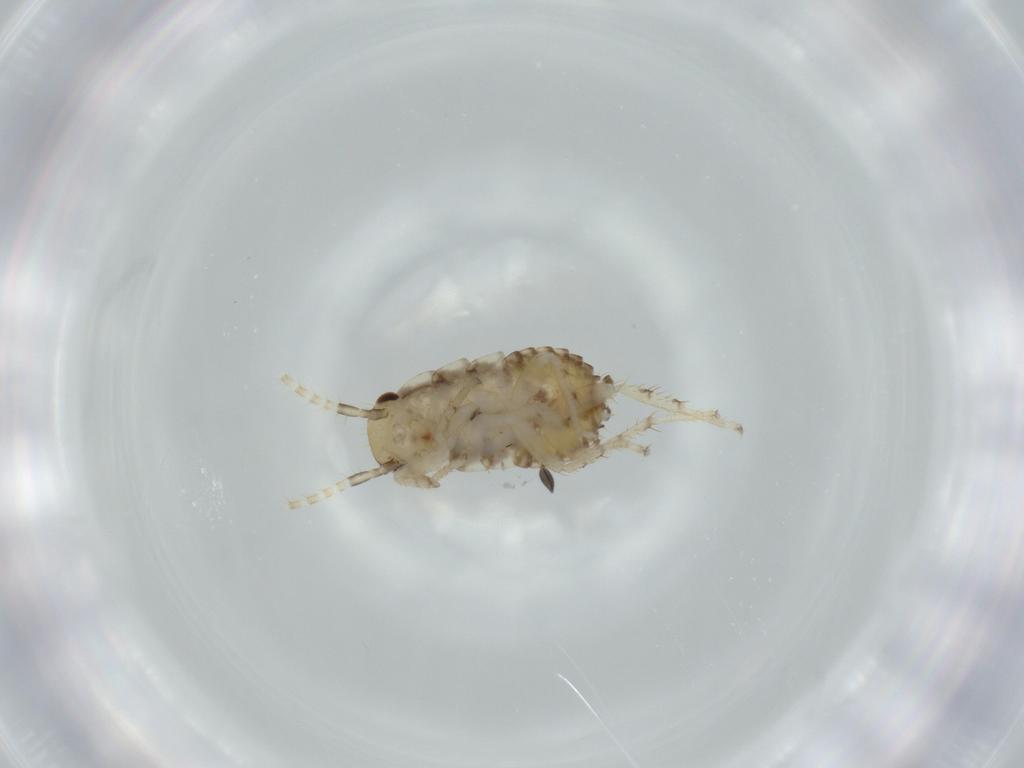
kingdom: Animalia
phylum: Arthropoda
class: Insecta
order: Blattodea
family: Ectobiidae
